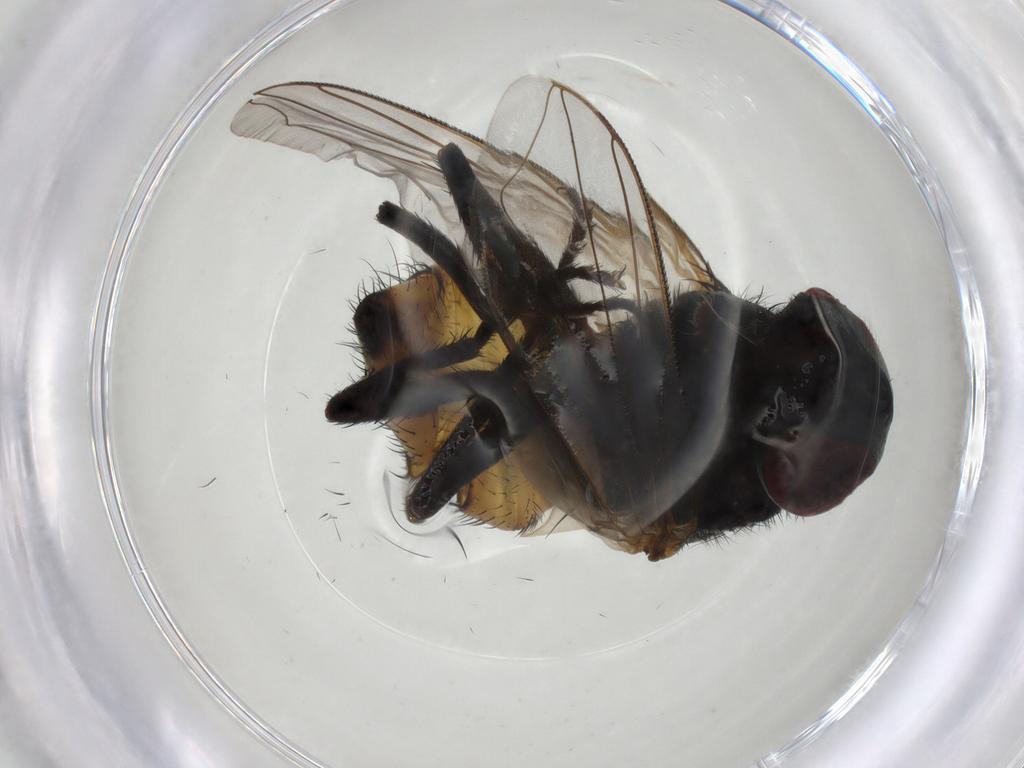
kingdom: Animalia
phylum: Arthropoda
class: Insecta
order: Diptera
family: Muscidae
